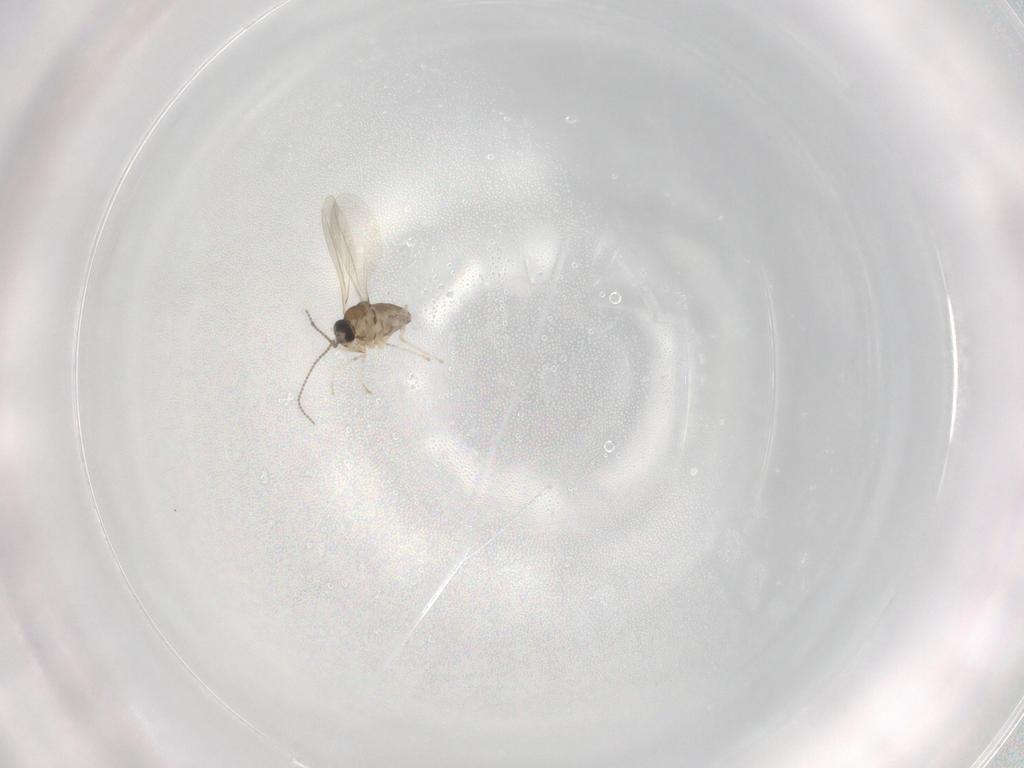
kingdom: Animalia
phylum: Arthropoda
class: Insecta
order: Diptera
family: Cecidomyiidae
